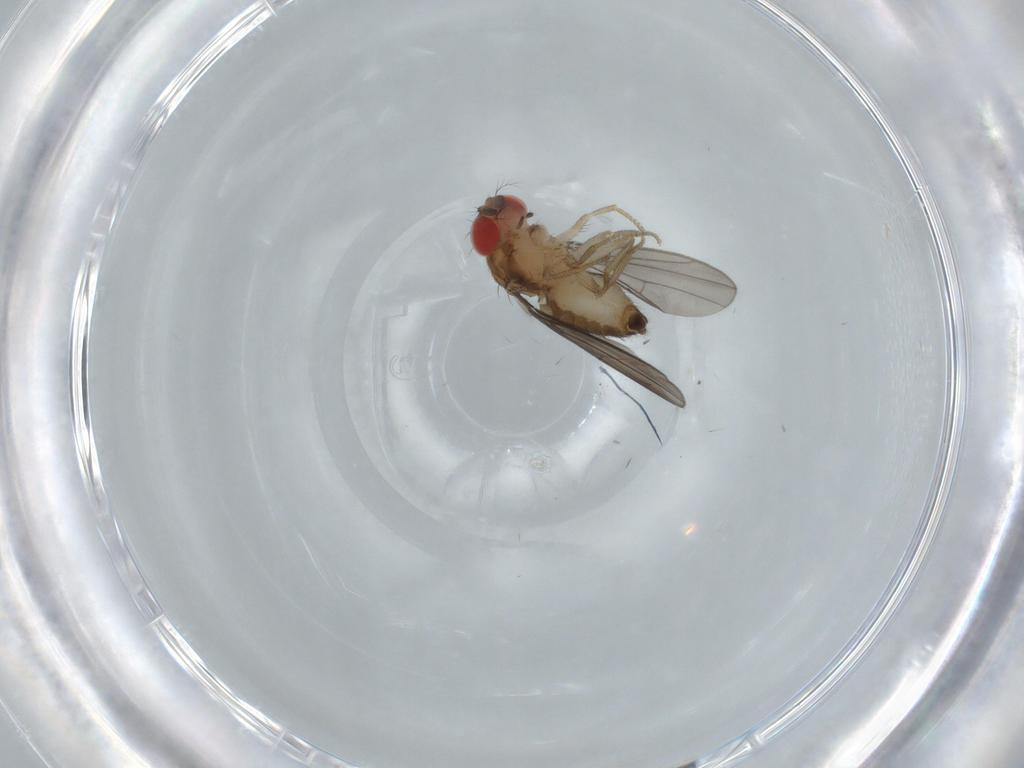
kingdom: Animalia
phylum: Arthropoda
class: Insecta
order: Diptera
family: Drosophilidae
